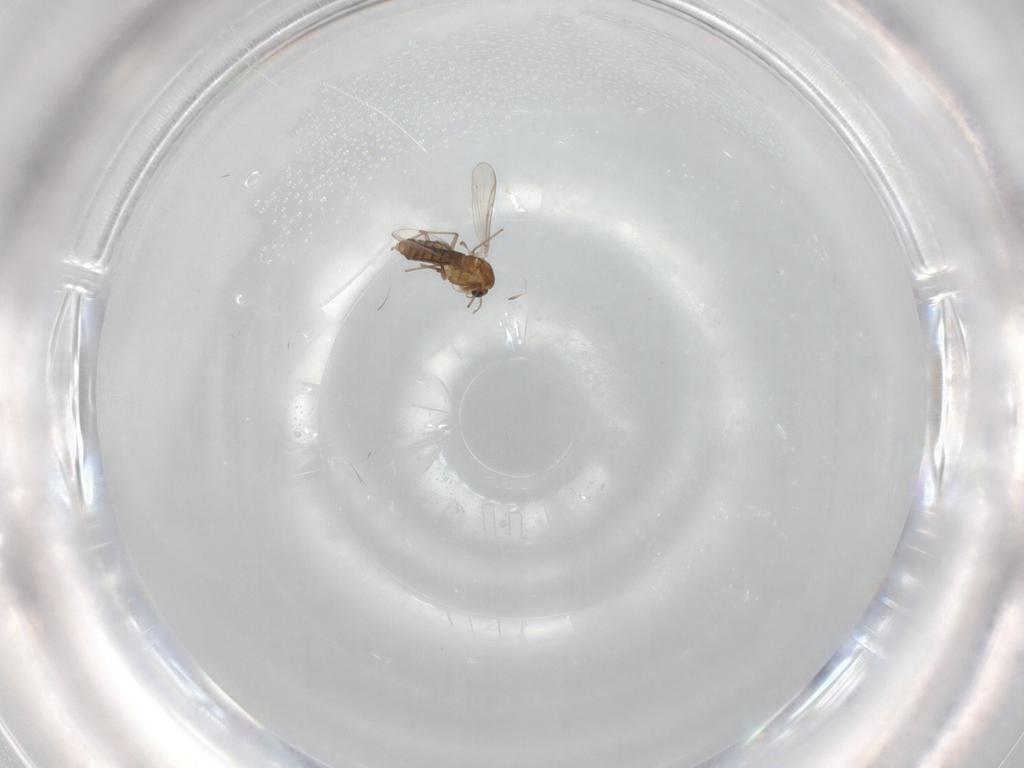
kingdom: Animalia
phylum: Arthropoda
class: Insecta
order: Diptera
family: Chironomidae
